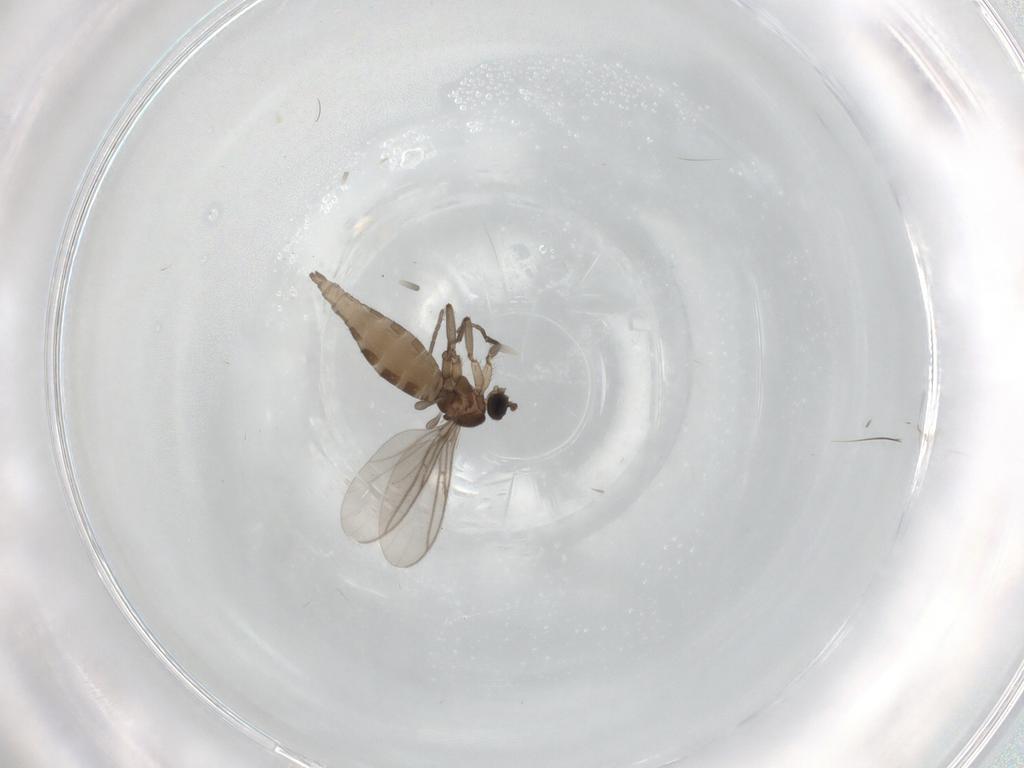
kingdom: Animalia
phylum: Arthropoda
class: Insecta
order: Diptera
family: Sciaridae
